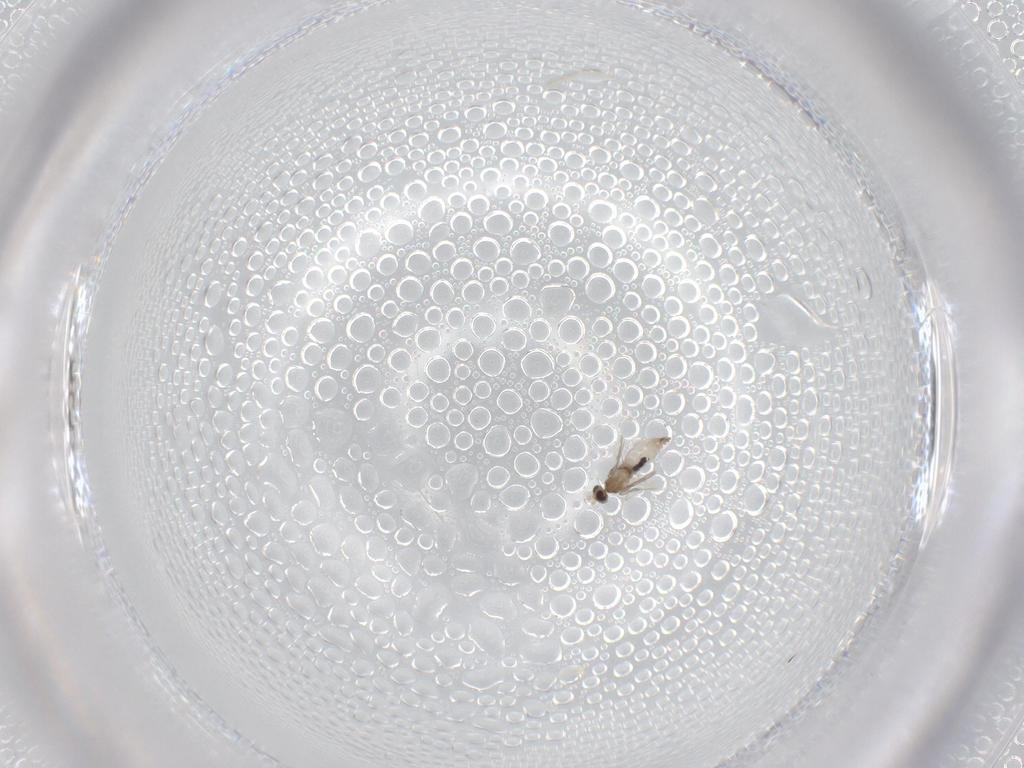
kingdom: Animalia
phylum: Arthropoda
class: Insecta
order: Diptera
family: Cecidomyiidae
